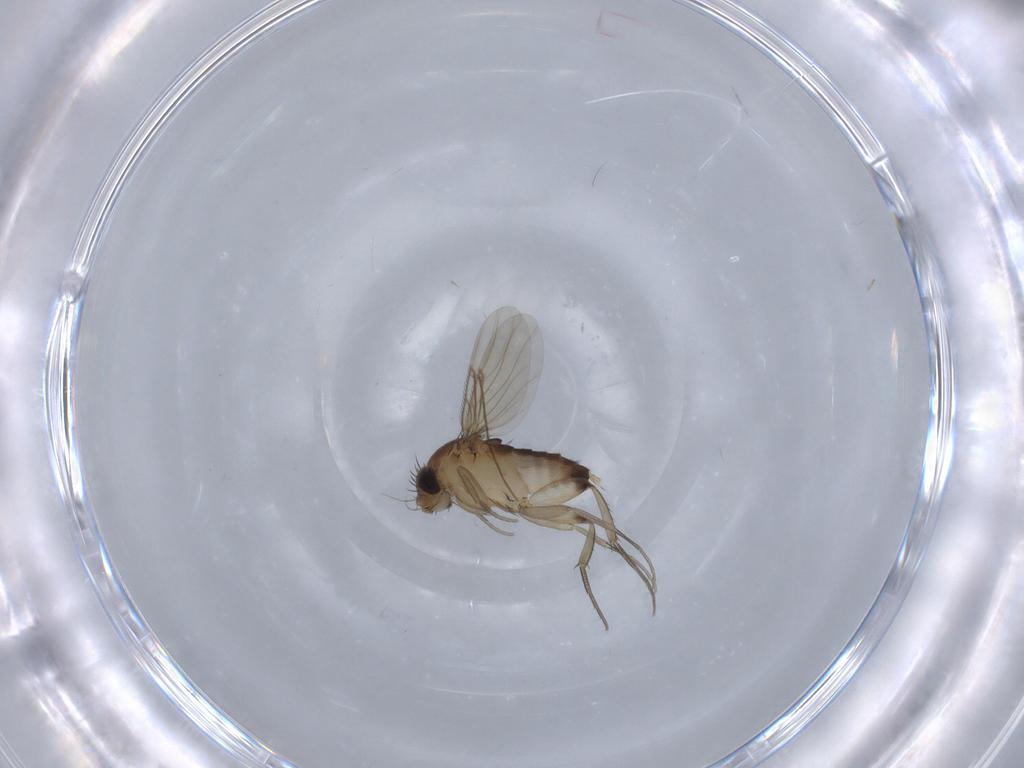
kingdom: Animalia
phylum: Arthropoda
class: Insecta
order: Diptera
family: Phoridae
